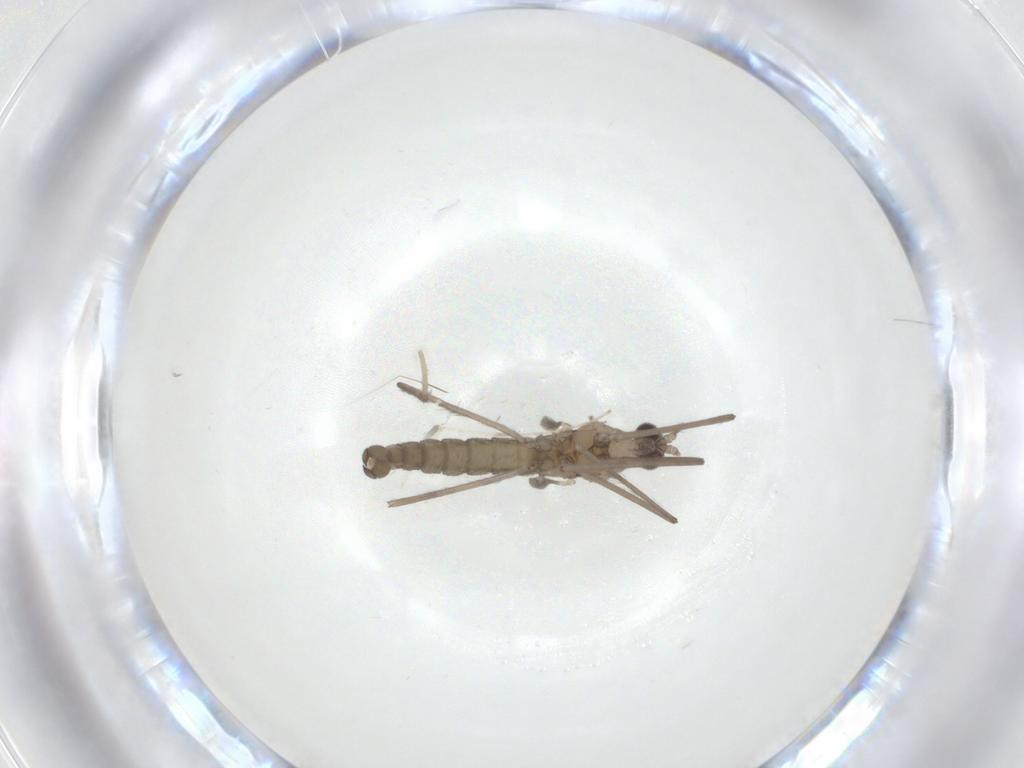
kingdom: Animalia
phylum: Arthropoda
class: Insecta
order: Diptera
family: Cecidomyiidae
